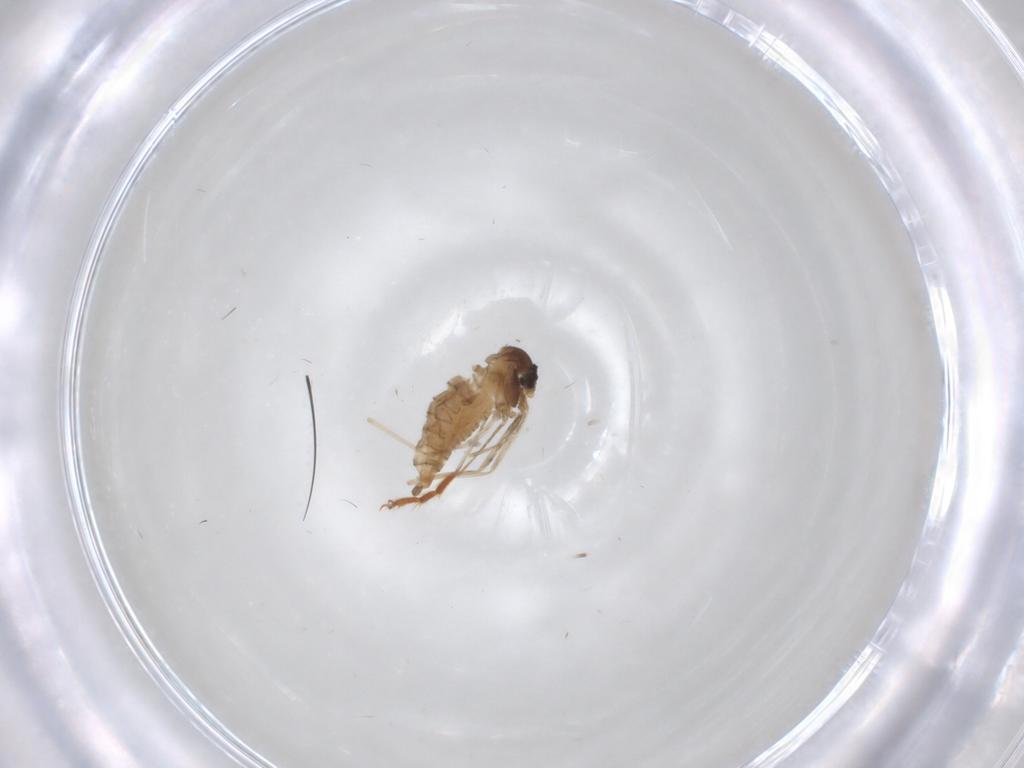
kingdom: Animalia
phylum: Arthropoda
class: Insecta
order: Diptera
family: Cecidomyiidae
